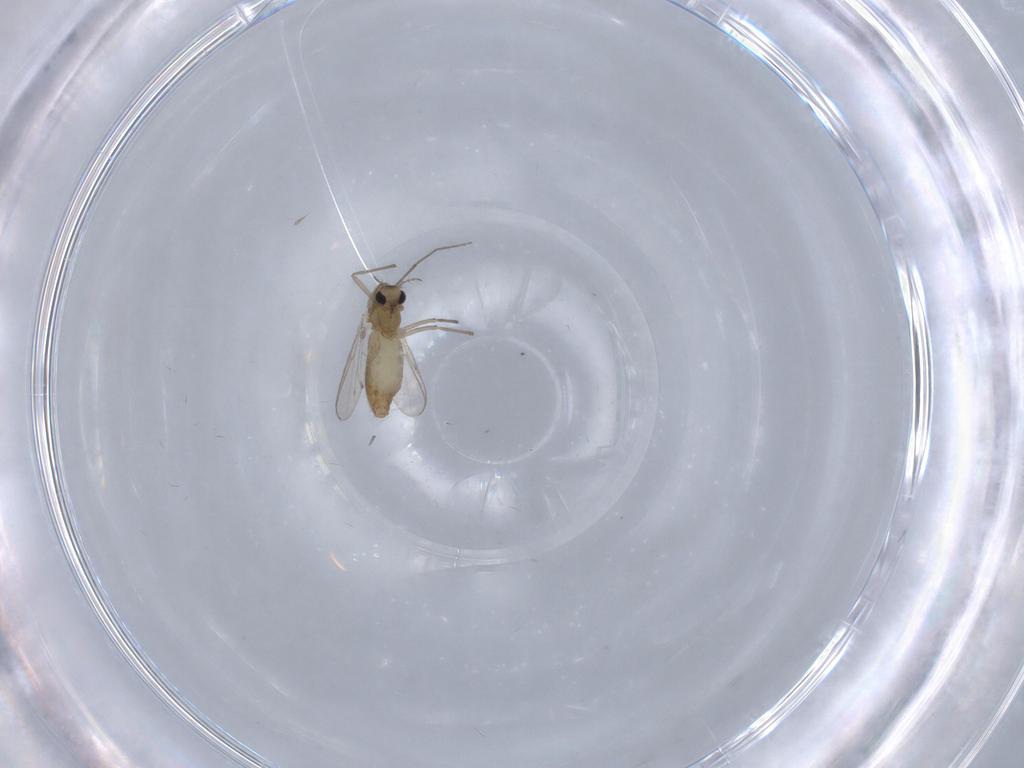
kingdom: Animalia
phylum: Arthropoda
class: Insecta
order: Diptera
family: Chironomidae
